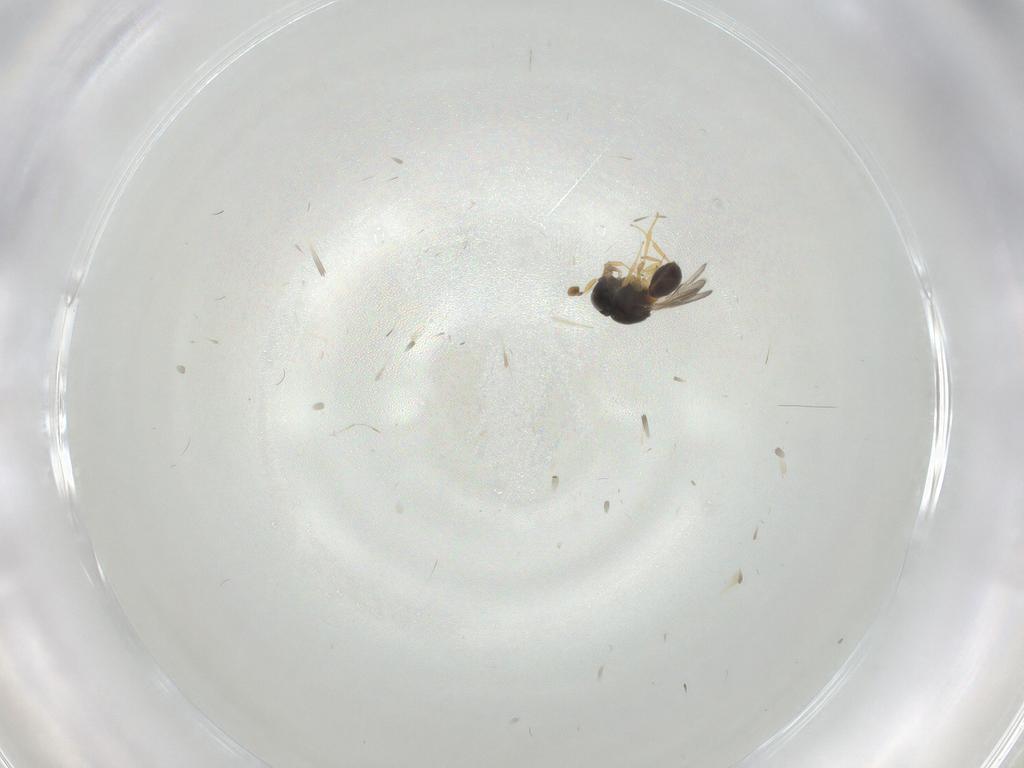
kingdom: Animalia
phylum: Arthropoda
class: Insecta
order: Hymenoptera
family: Scelionidae
